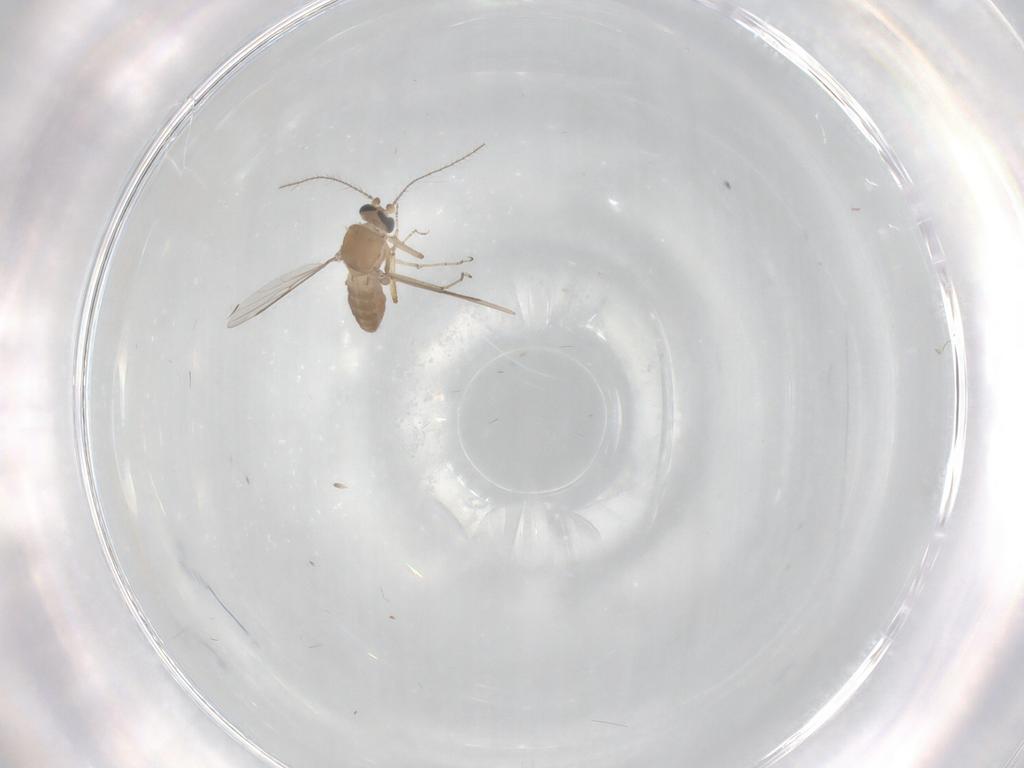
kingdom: Animalia
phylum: Arthropoda
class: Insecta
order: Diptera
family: Ceratopogonidae
